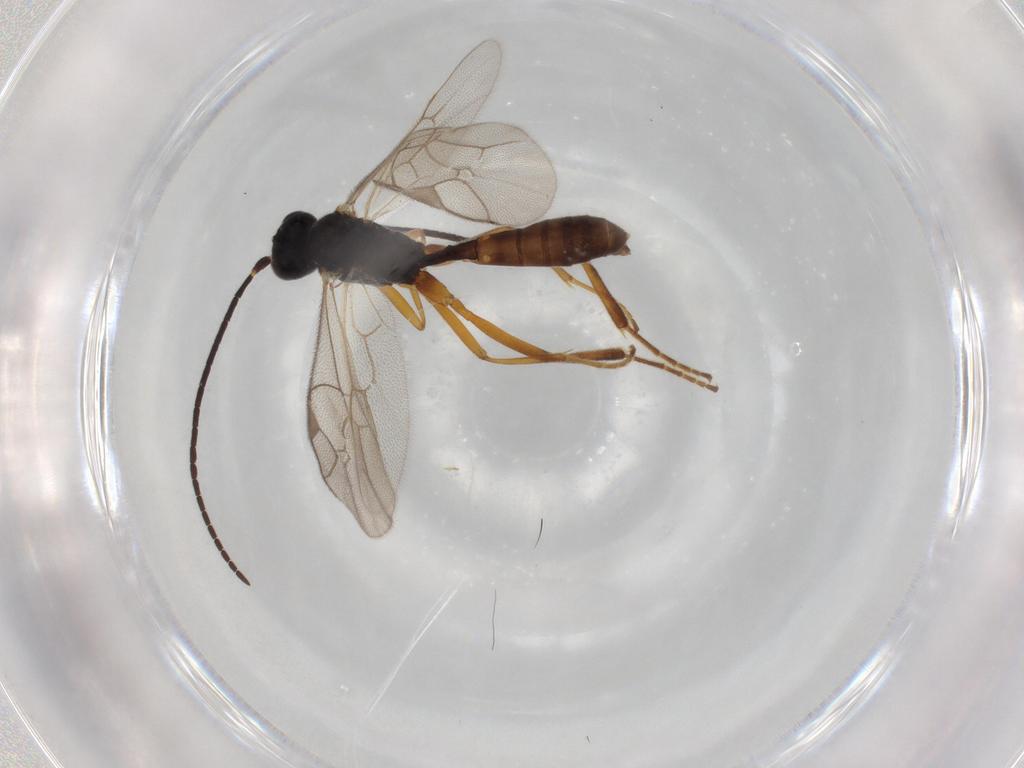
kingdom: Animalia
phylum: Arthropoda
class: Insecta
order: Hymenoptera
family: Ichneumonidae
